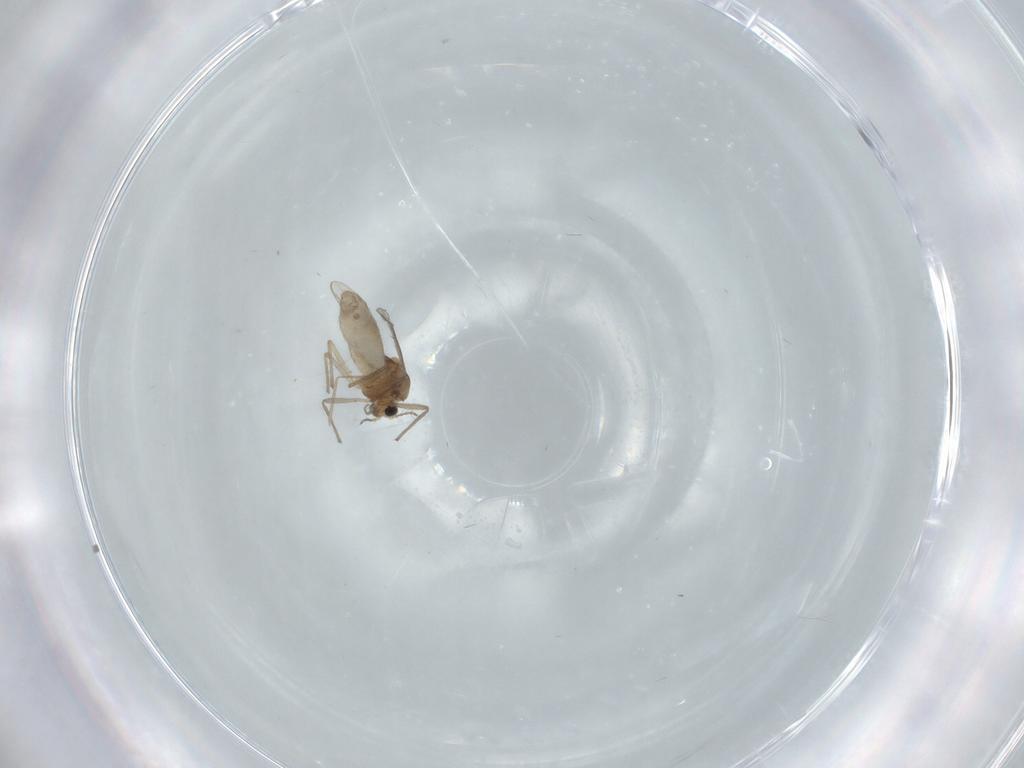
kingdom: Animalia
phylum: Arthropoda
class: Insecta
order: Diptera
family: Chironomidae
